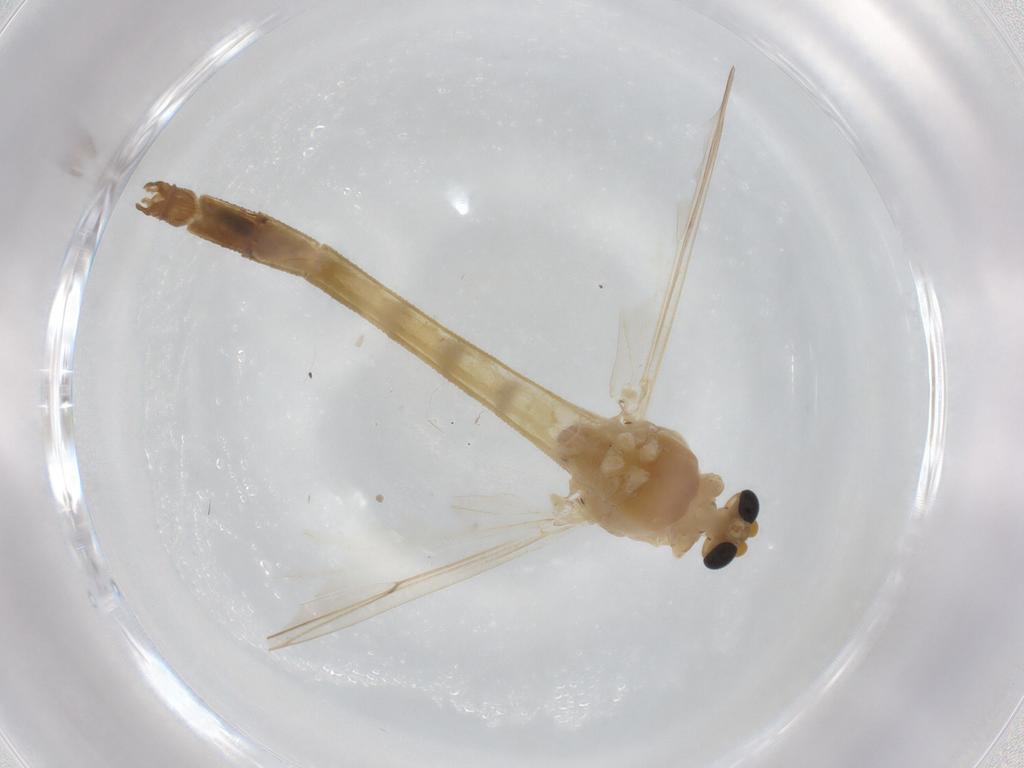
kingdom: Animalia
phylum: Arthropoda
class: Insecta
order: Diptera
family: Chironomidae
